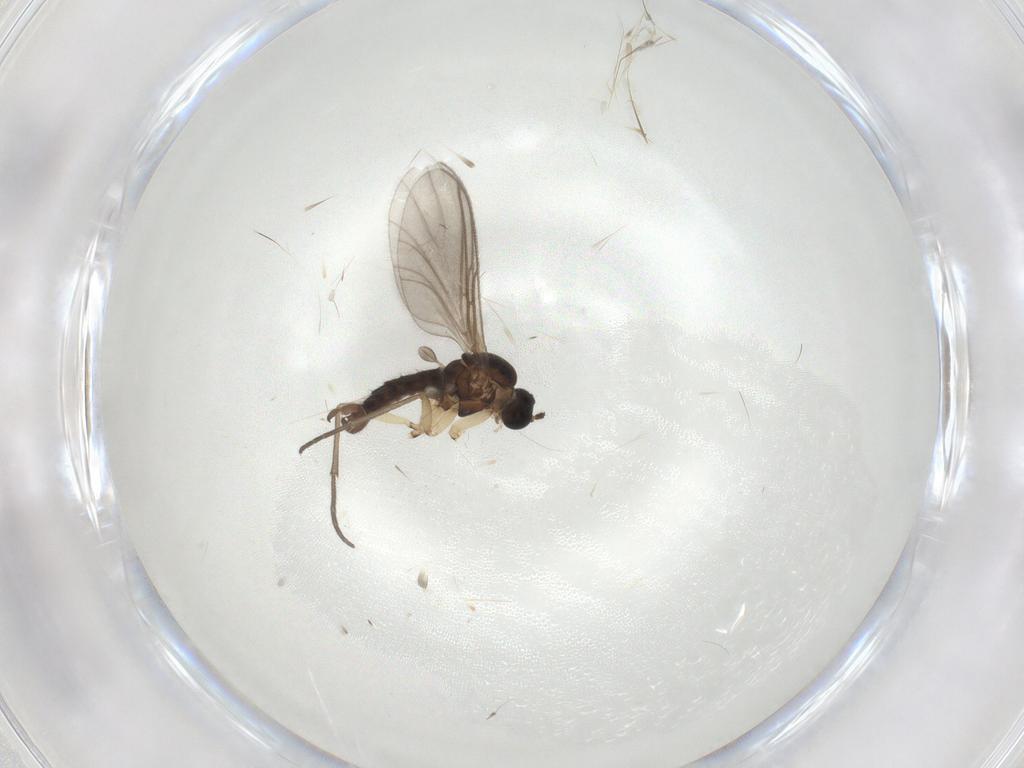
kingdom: Animalia
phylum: Arthropoda
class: Insecta
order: Diptera
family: Sciaridae
